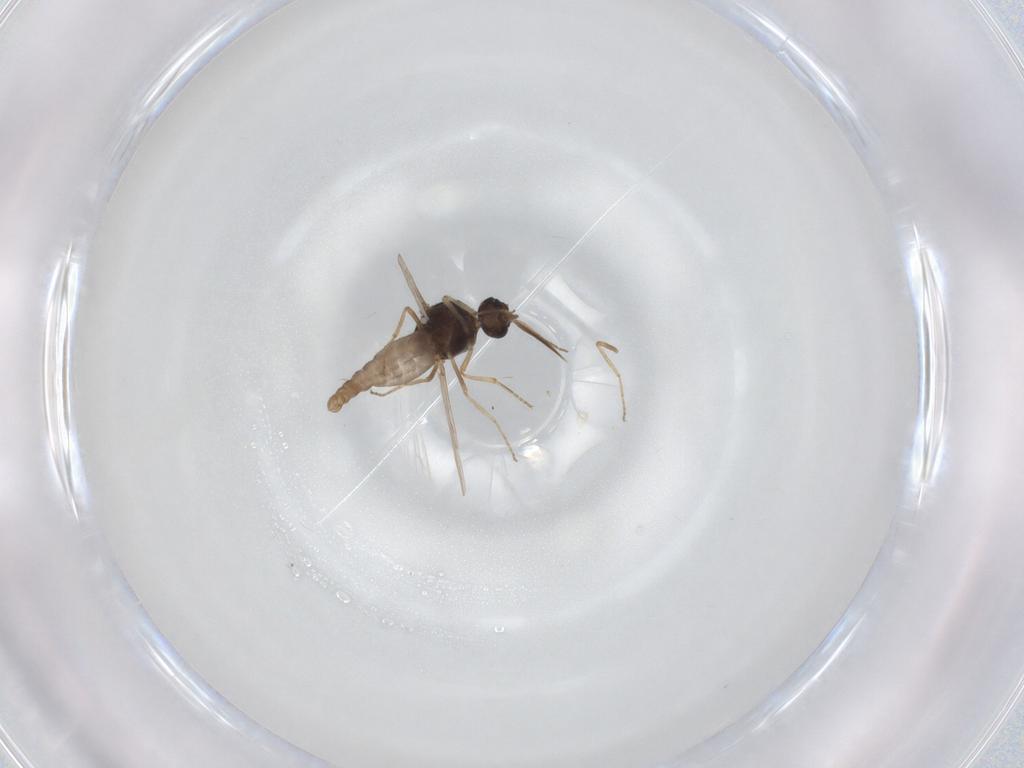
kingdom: Animalia
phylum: Arthropoda
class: Insecta
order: Diptera
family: Ceratopogonidae
